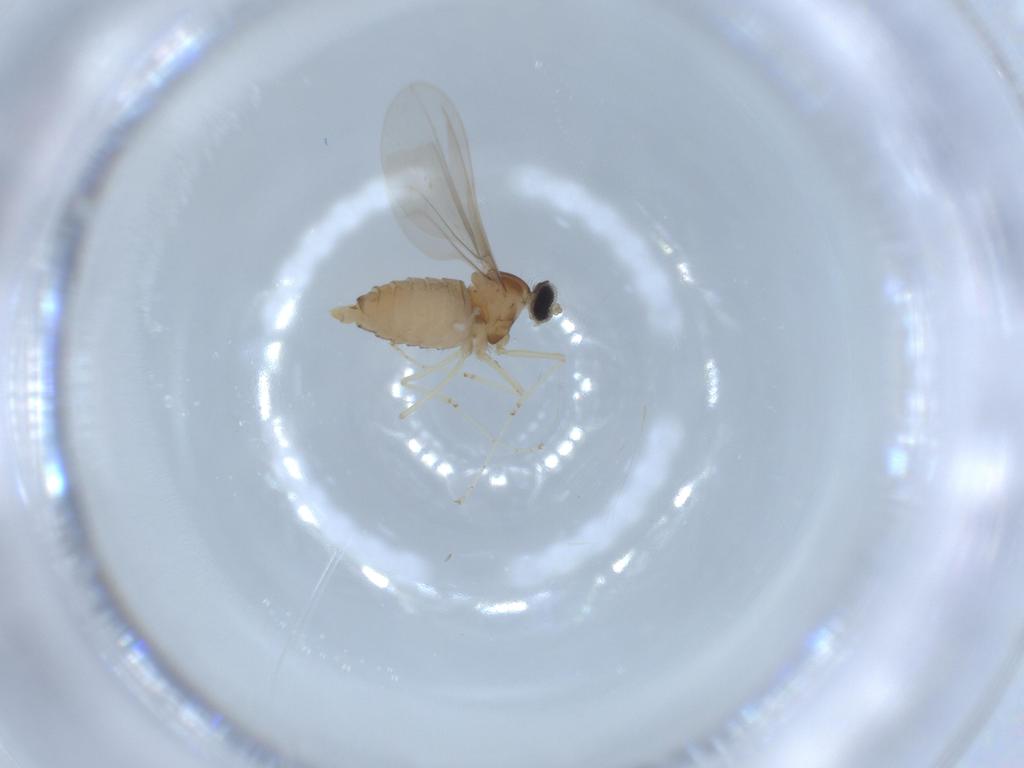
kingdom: Animalia
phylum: Arthropoda
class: Insecta
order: Diptera
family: Cecidomyiidae
